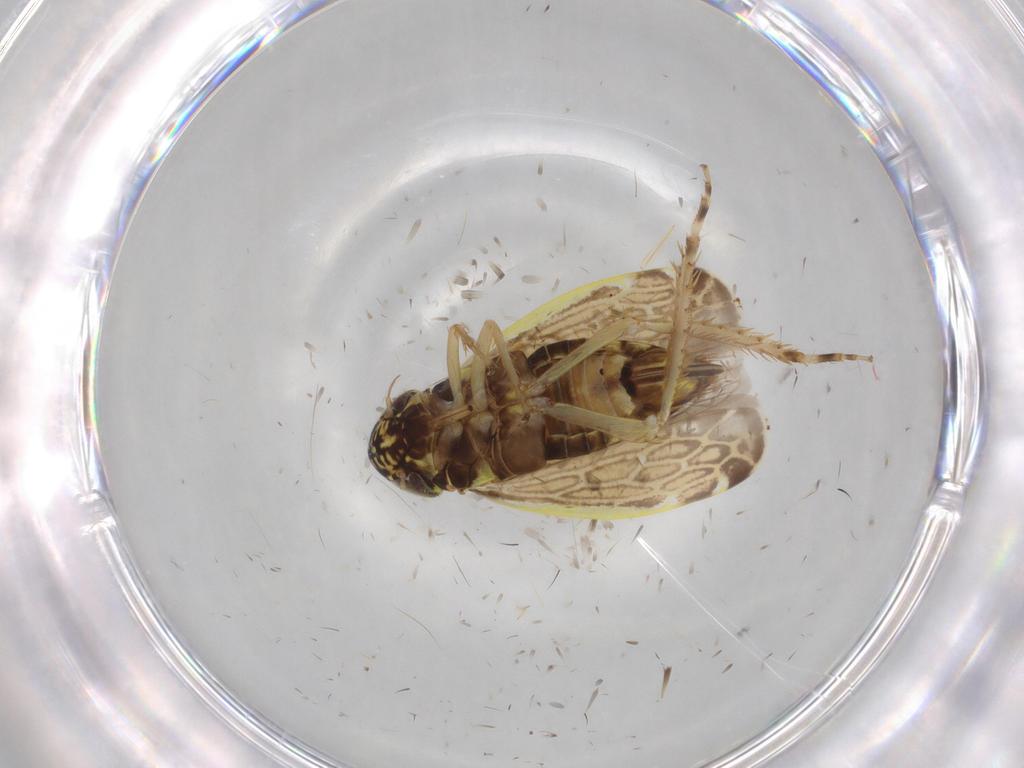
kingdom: Animalia
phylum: Arthropoda
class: Insecta
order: Hemiptera
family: Cicadellidae
